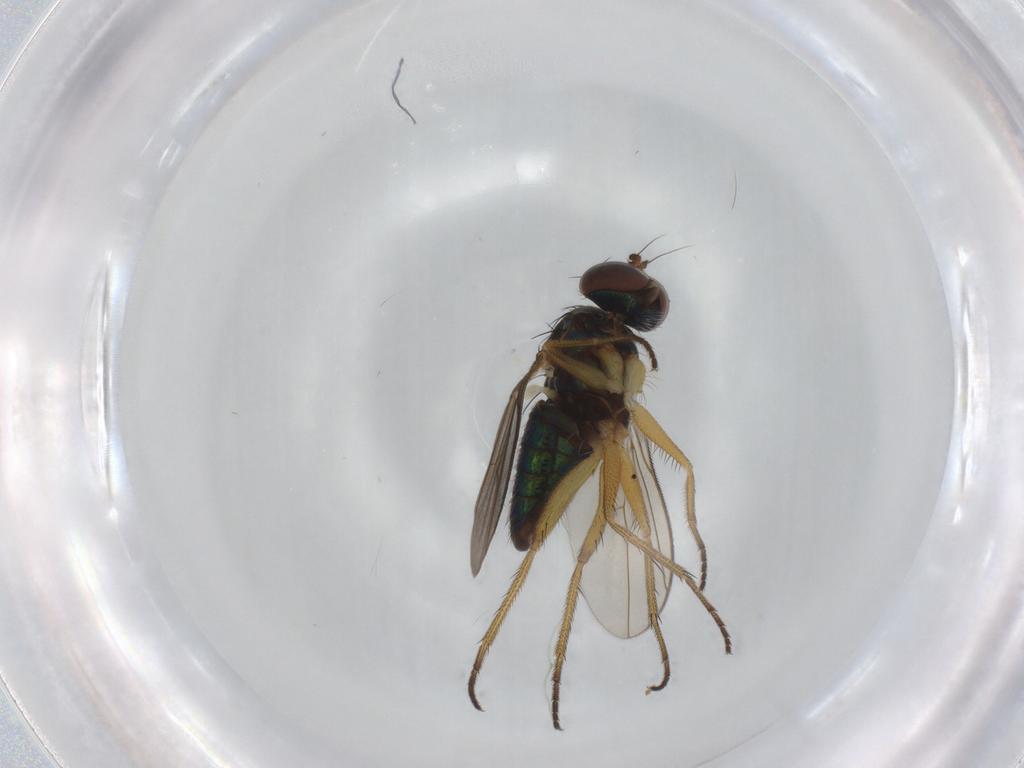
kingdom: Animalia
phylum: Arthropoda
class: Insecta
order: Diptera
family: Dolichopodidae
